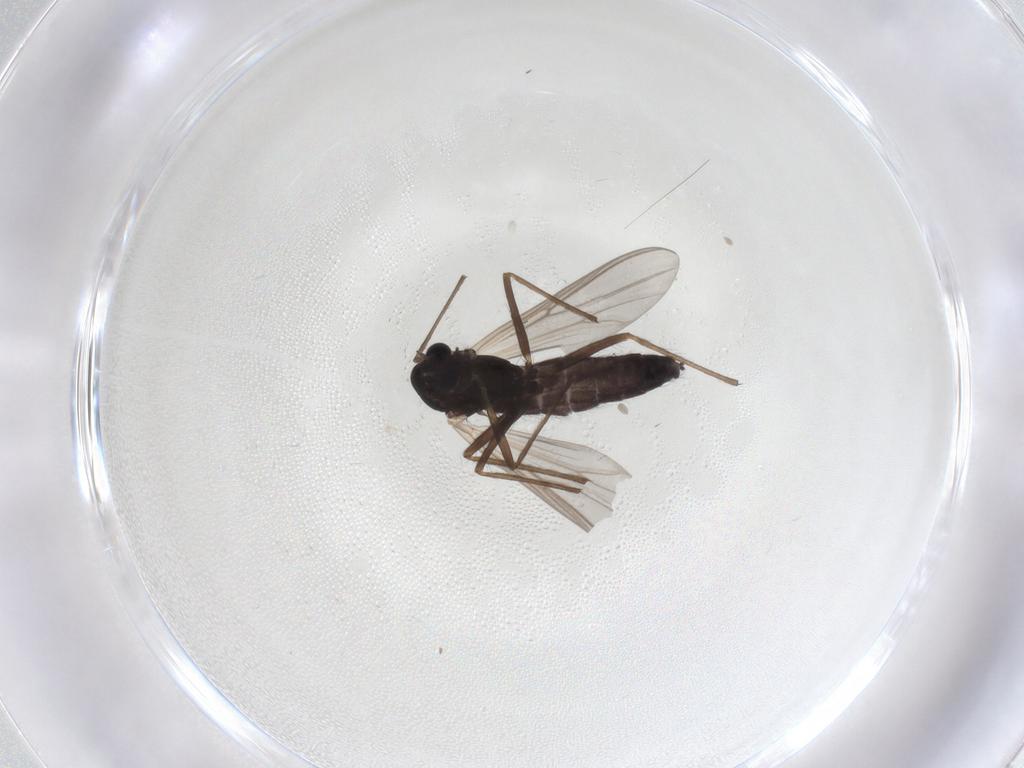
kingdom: Animalia
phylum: Arthropoda
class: Insecta
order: Diptera
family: Chironomidae
